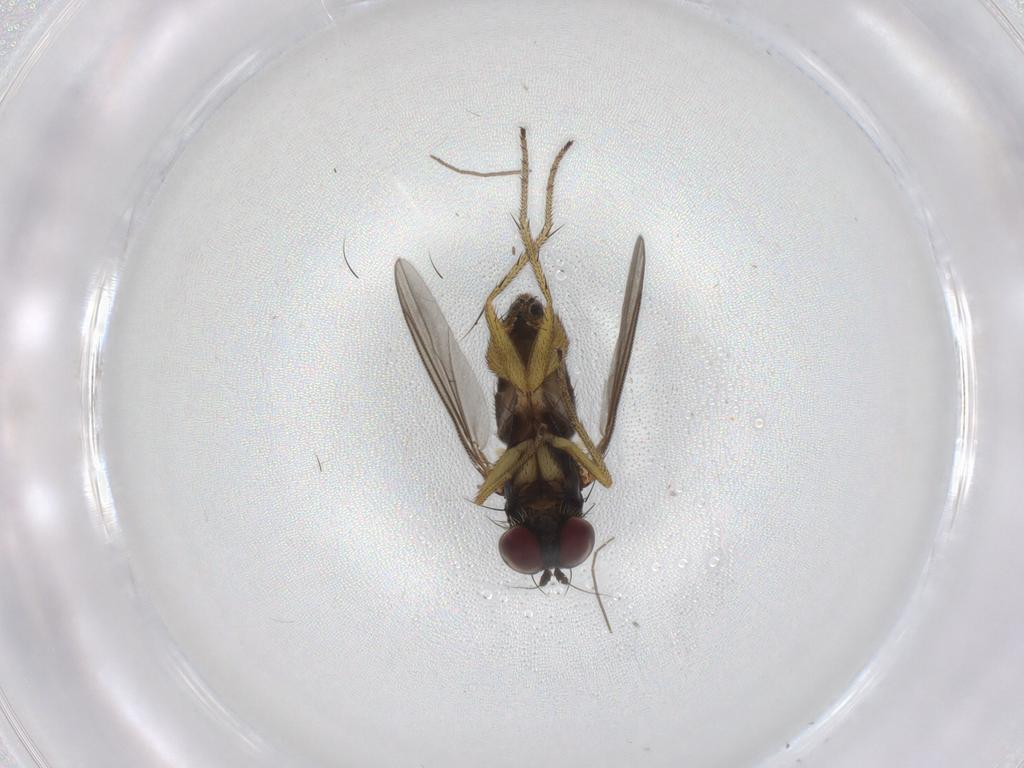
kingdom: Animalia
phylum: Arthropoda
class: Insecta
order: Diptera
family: Dolichopodidae
